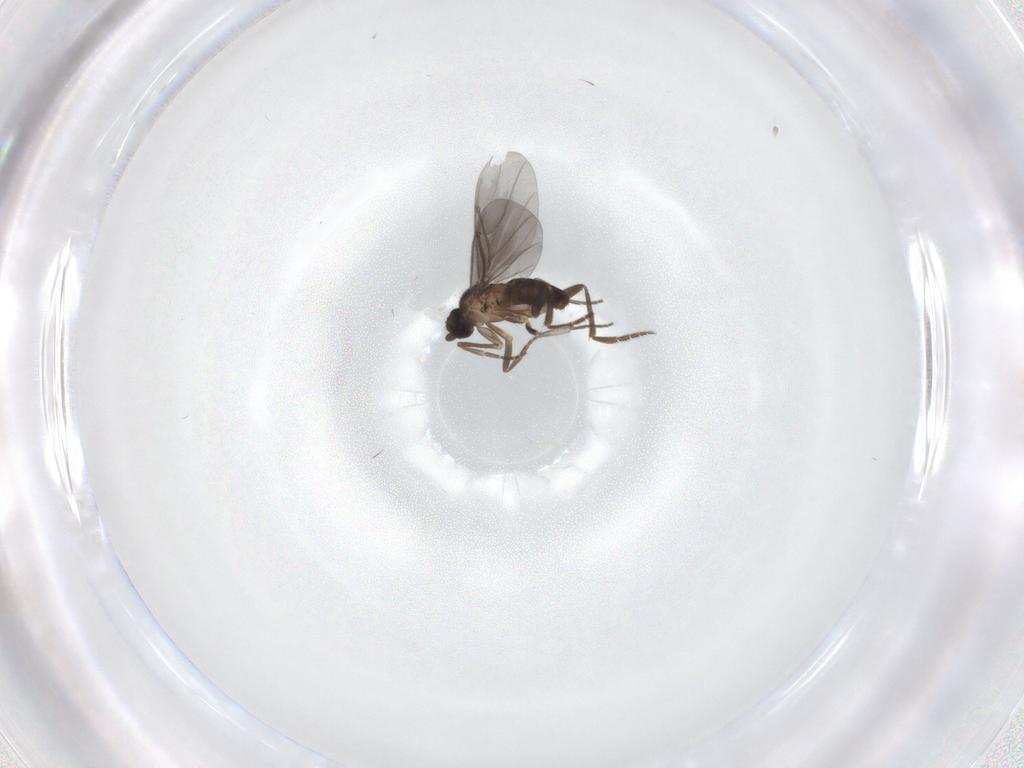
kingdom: Animalia
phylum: Arthropoda
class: Insecta
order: Diptera
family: Phoridae
